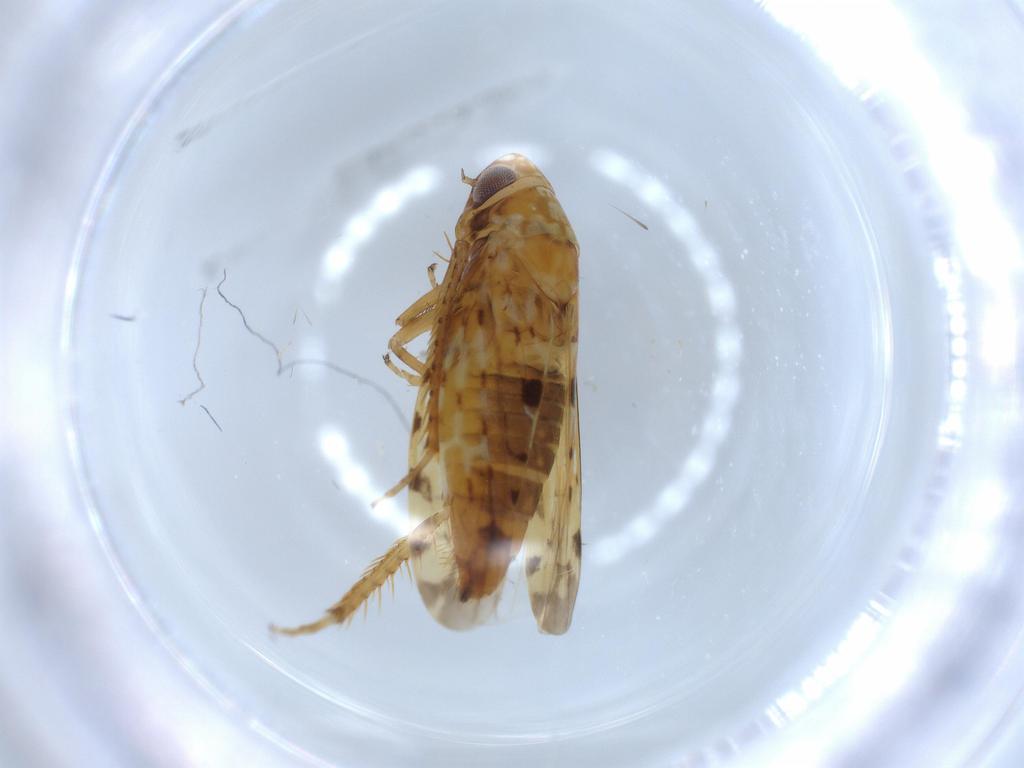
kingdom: Animalia
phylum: Arthropoda
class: Insecta
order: Hemiptera
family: Cicadellidae
